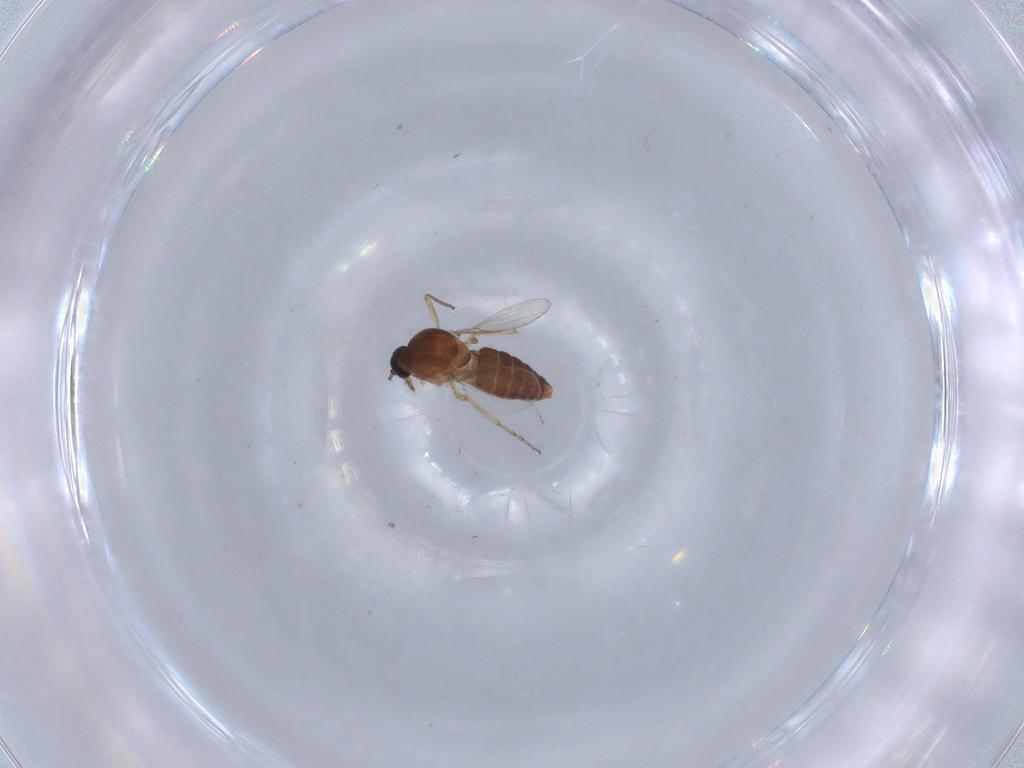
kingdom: Animalia
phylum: Arthropoda
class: Insecta
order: Diptera
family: Ceratopogonidae
